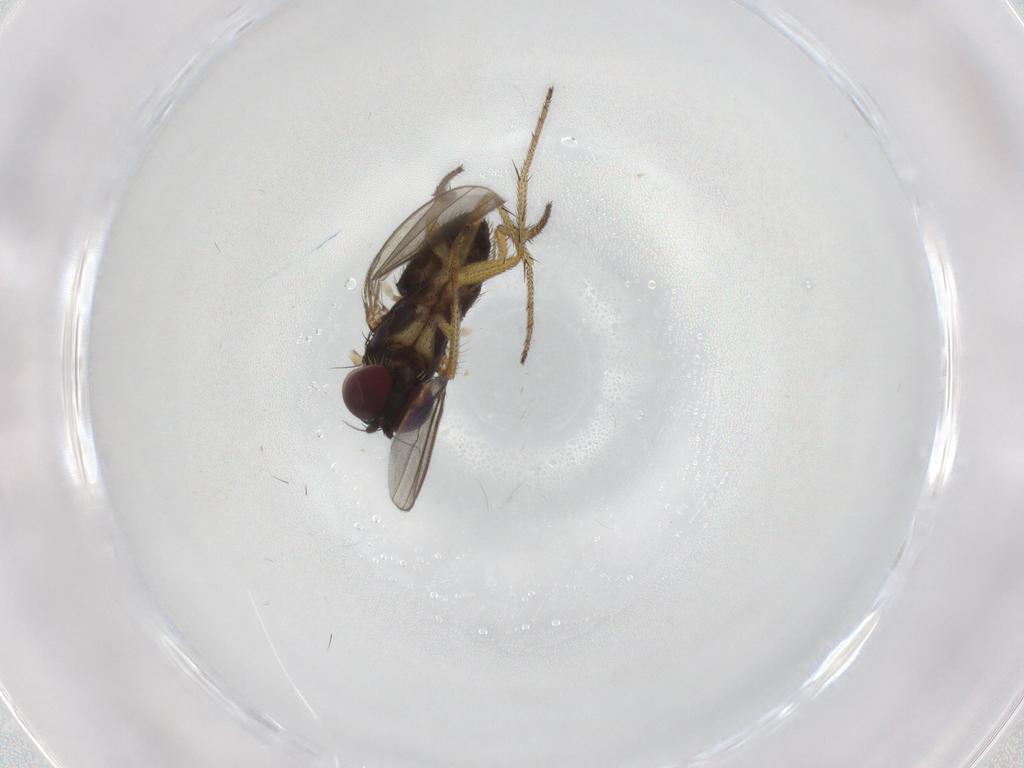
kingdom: Animalia
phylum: Arthropoda
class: Insecta
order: Diptera
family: Calliphoridae
